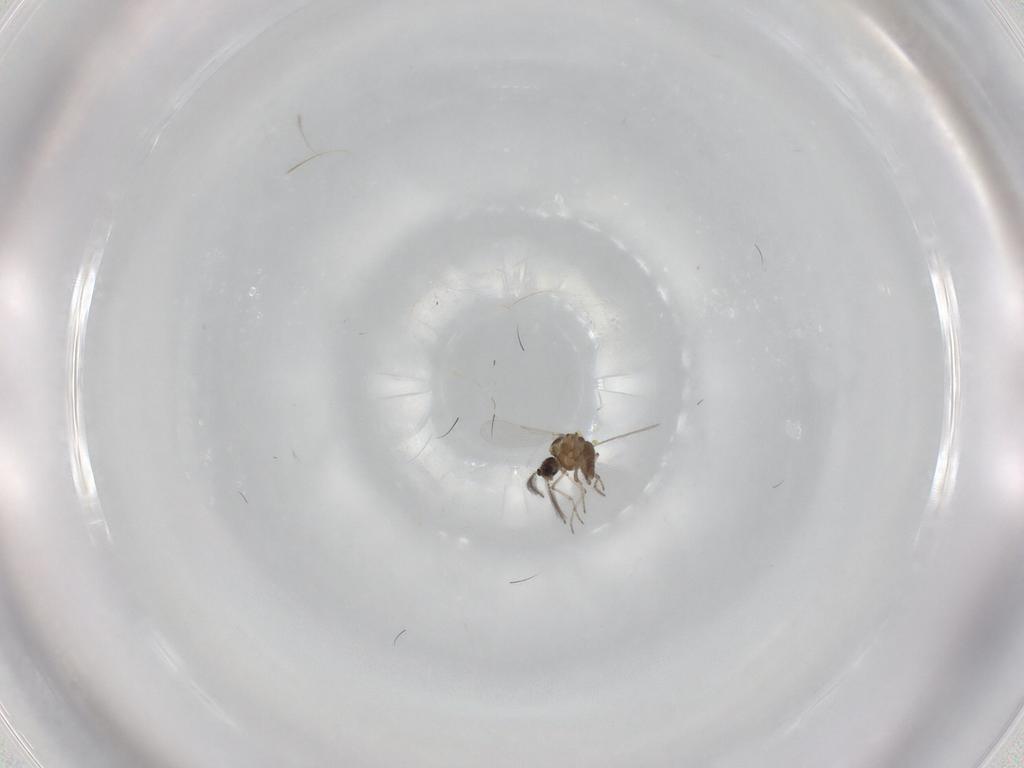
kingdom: Animalia
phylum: Arthropoda
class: Insecta
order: Diptera
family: Ceratopogonidae
